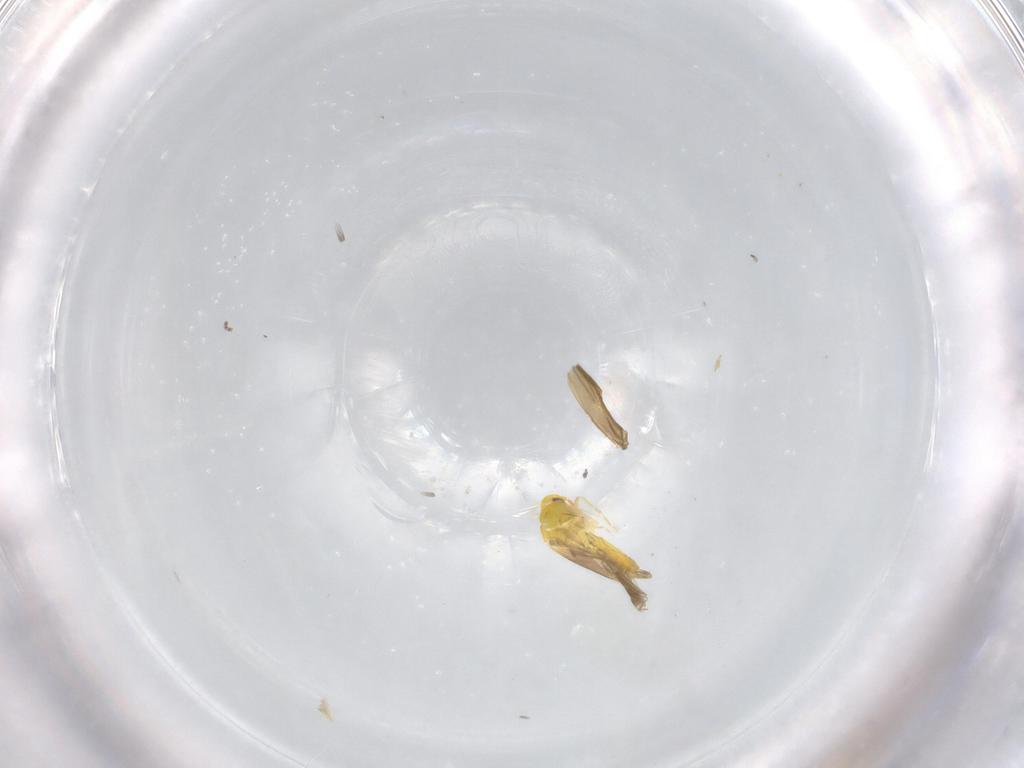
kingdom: Animalia
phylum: Arthropoda
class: Insecta
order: Hemiptera
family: Aleyrodidae
